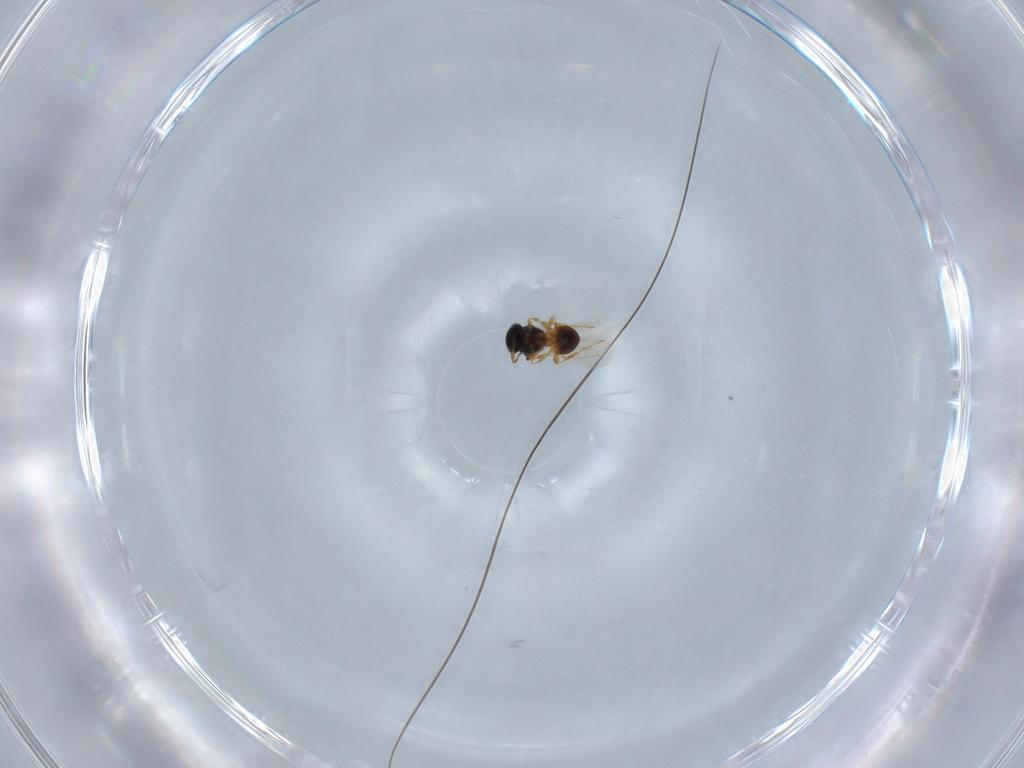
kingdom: Animalia
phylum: Arthropoda
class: Insecta
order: Hymenoptera
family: Platygastridae
